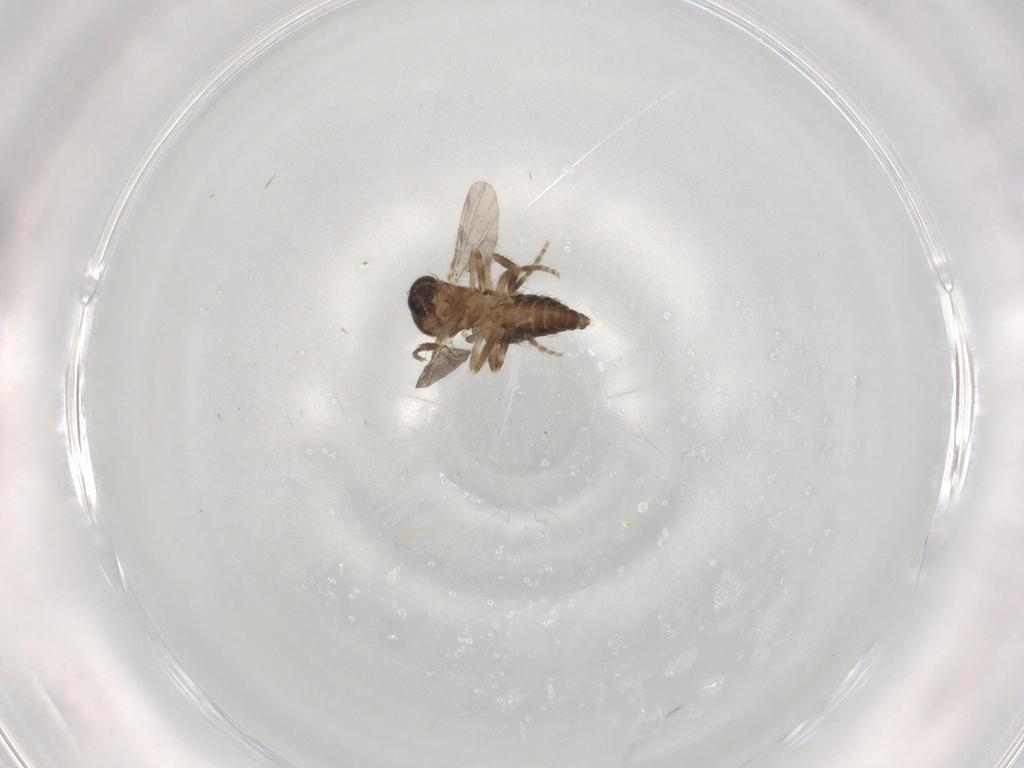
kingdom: Animalia
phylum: Arthropoda
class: Insecta
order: Diptera
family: Ceratopogonidae
